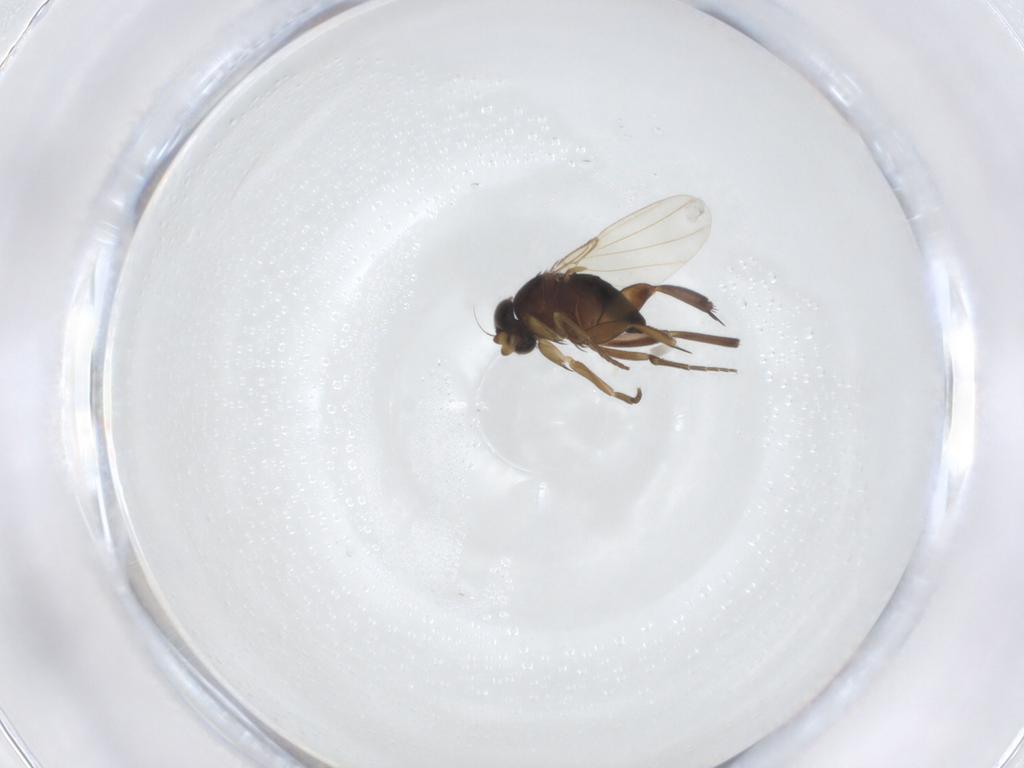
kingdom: Animalia
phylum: Arthropoda
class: Insecta
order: Diptera
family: Phoridae
